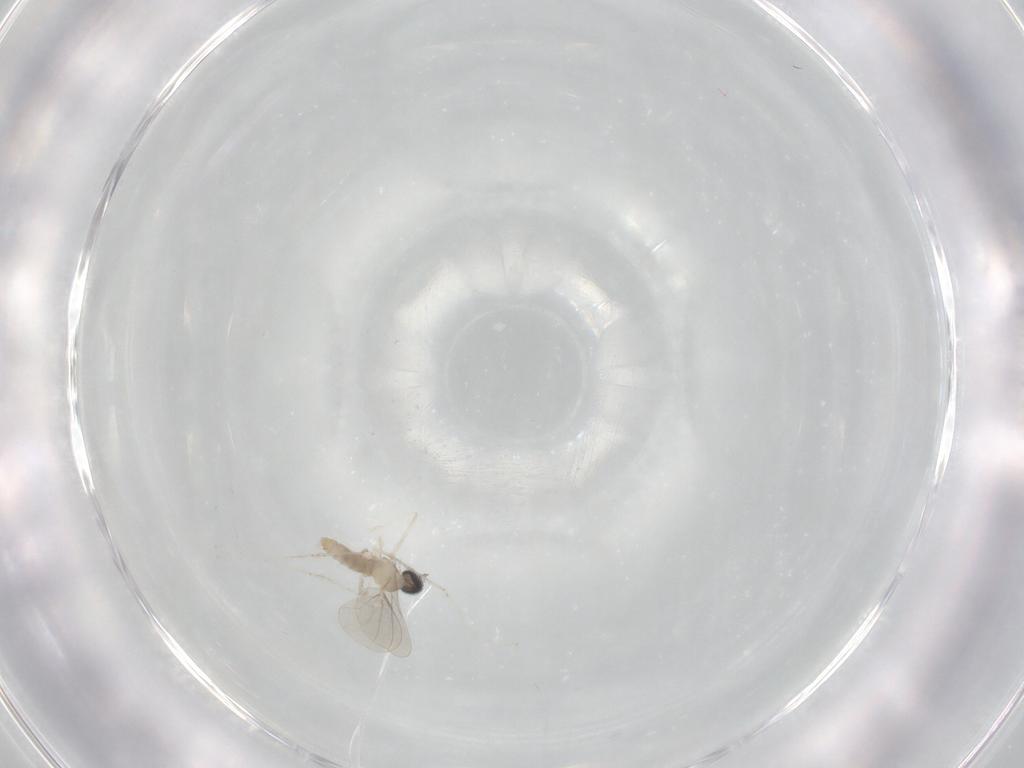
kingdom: Animalia
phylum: Arthropoda
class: Insecta
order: Diptera
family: Cecidomyiidae
